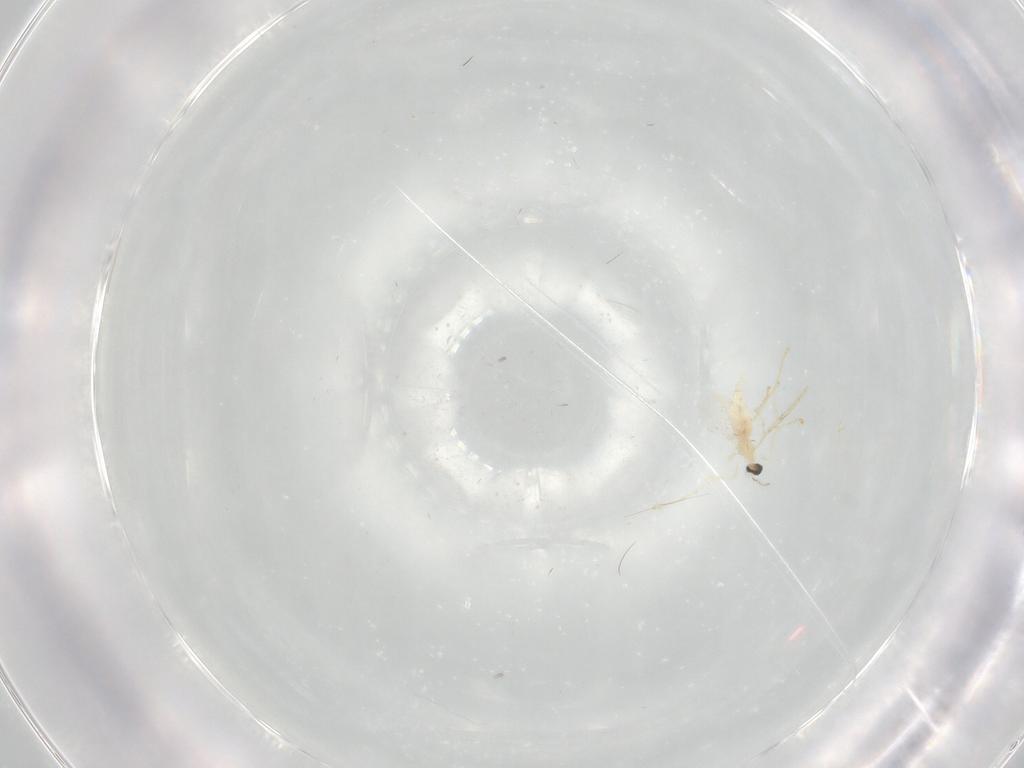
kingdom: Animalia
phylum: Arthropoda
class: Insecta
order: Diptera
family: Cecidomyiidae
